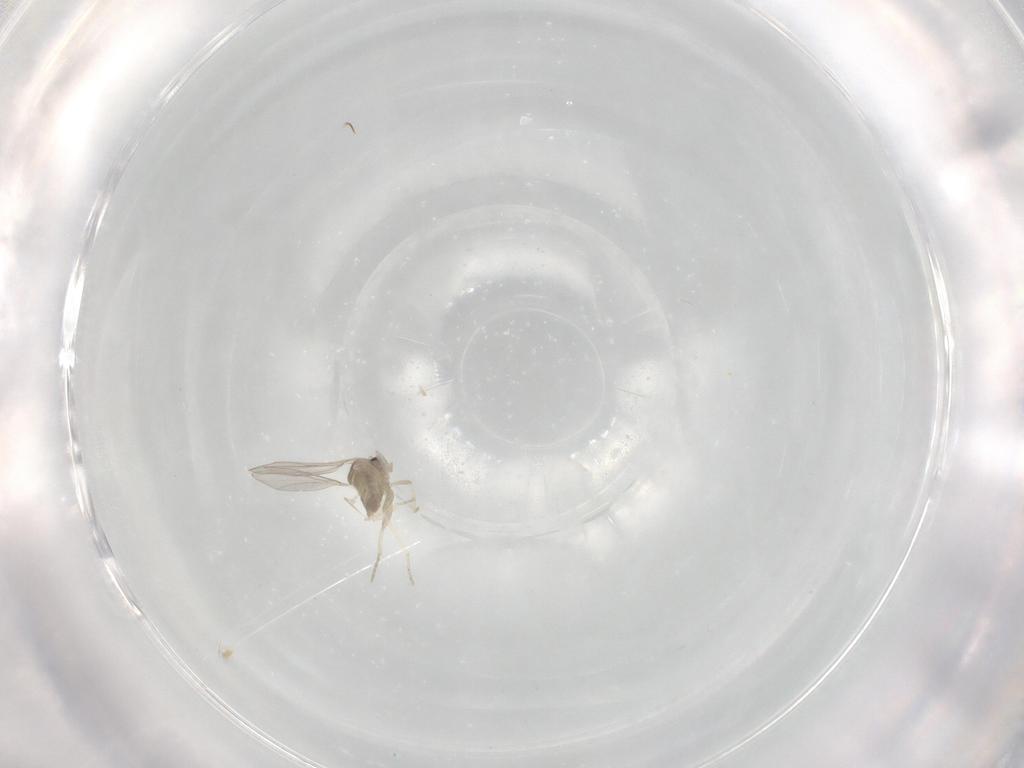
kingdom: Animalia
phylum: Arthropoda
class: Insecta
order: Diptera
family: Cecidomyiidae
